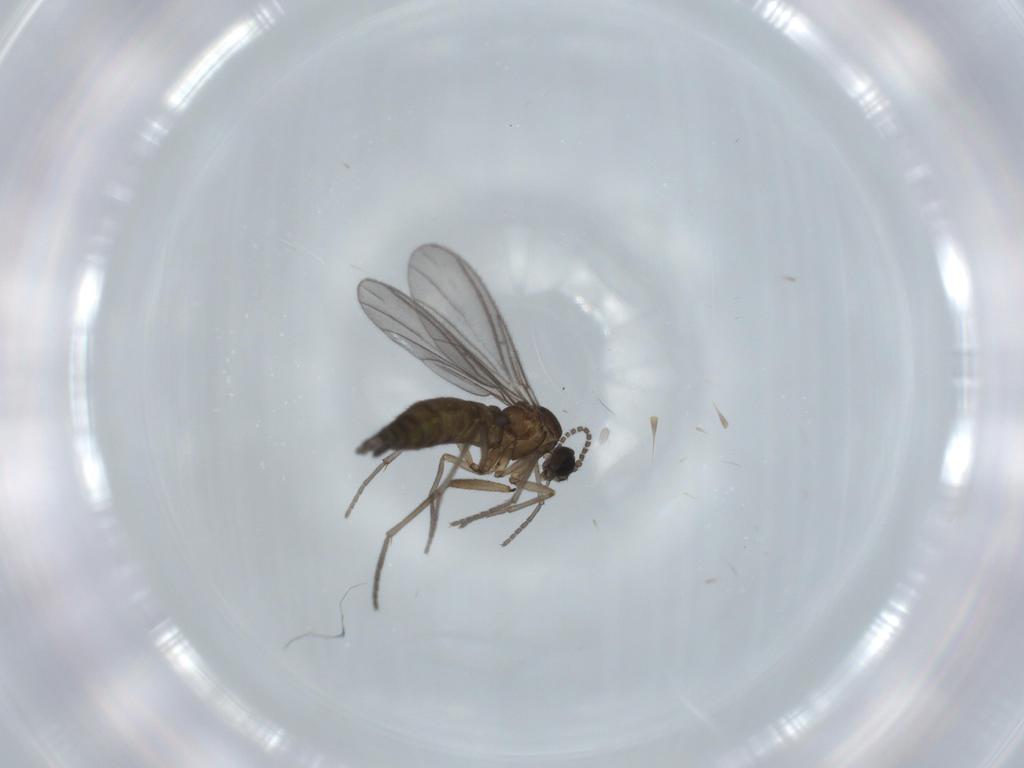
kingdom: Animalia
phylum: Arthropoda
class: Insecta
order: Diptera
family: Sciaridae
